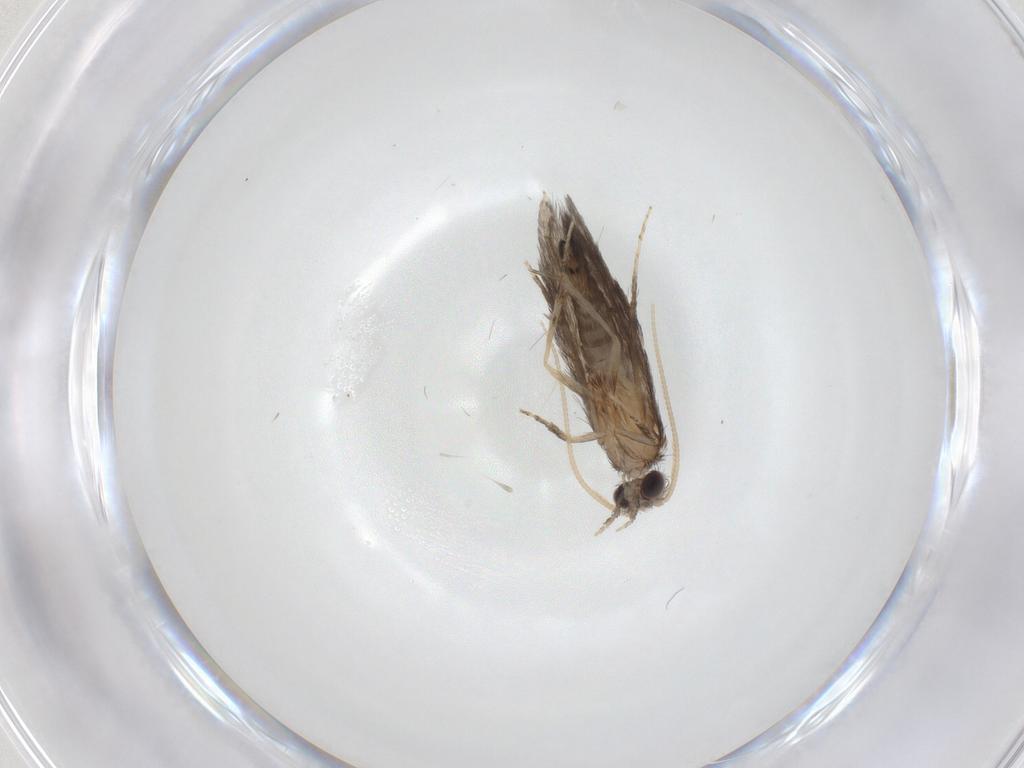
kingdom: Animalia
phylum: Arthropoda
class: Insecta
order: Trichoptera
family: Hydroptilidae
